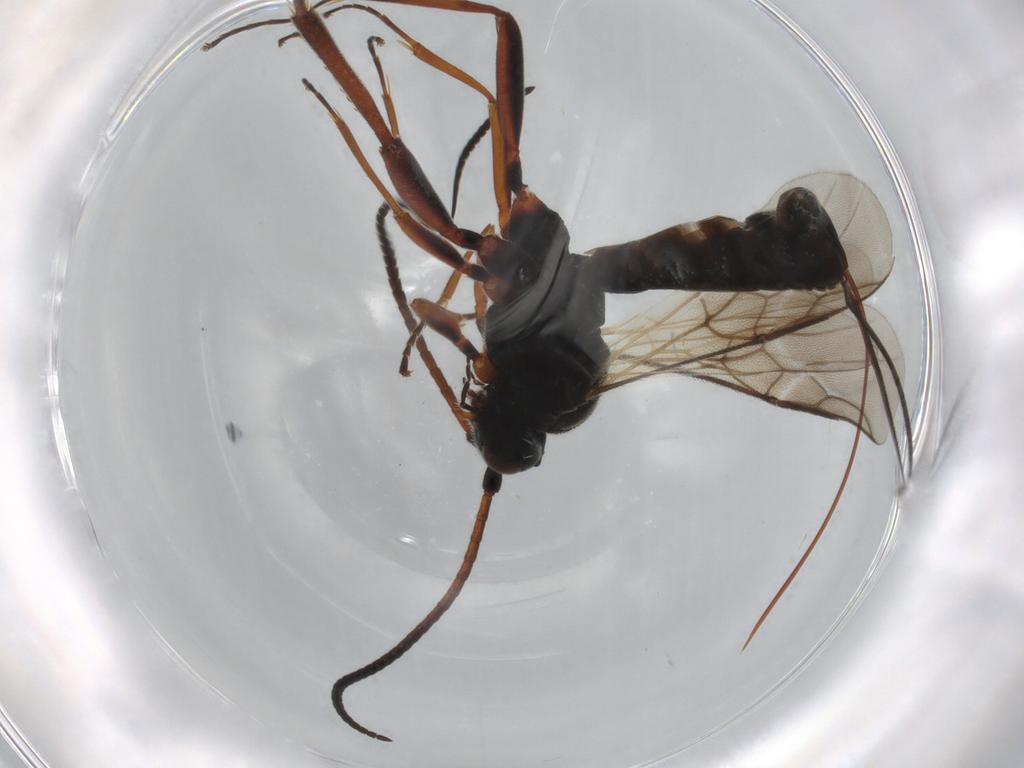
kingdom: Animalia
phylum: Arthropoda
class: Insecta
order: Hymenoptera
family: Braconidae
